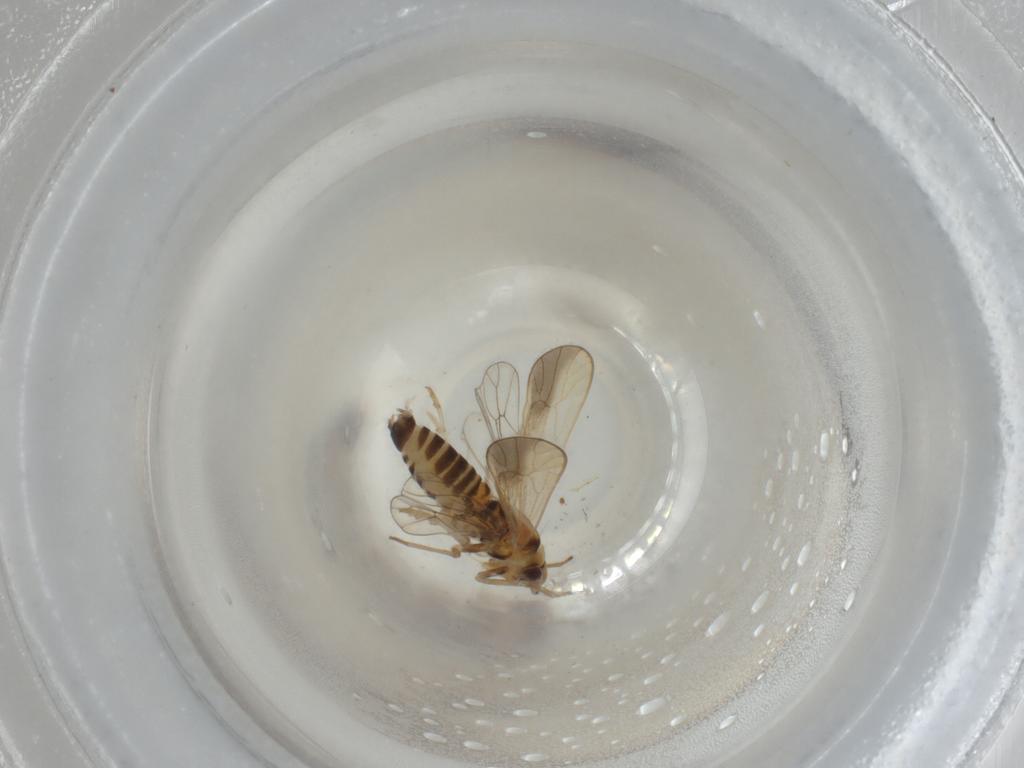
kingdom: Animalia
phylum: Arthropoda
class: Insecta
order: Hemiptera
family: Delphacidae
